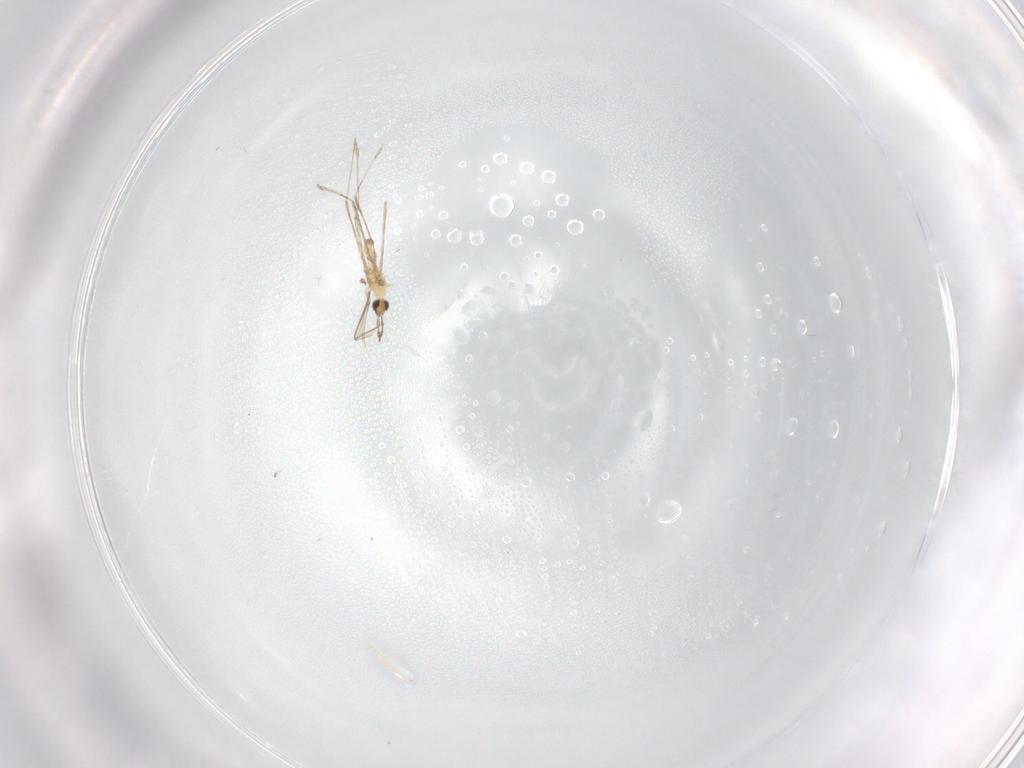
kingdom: Animalia
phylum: Arthropoda
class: Insecta
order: Diptera
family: Cecidomyiidae
